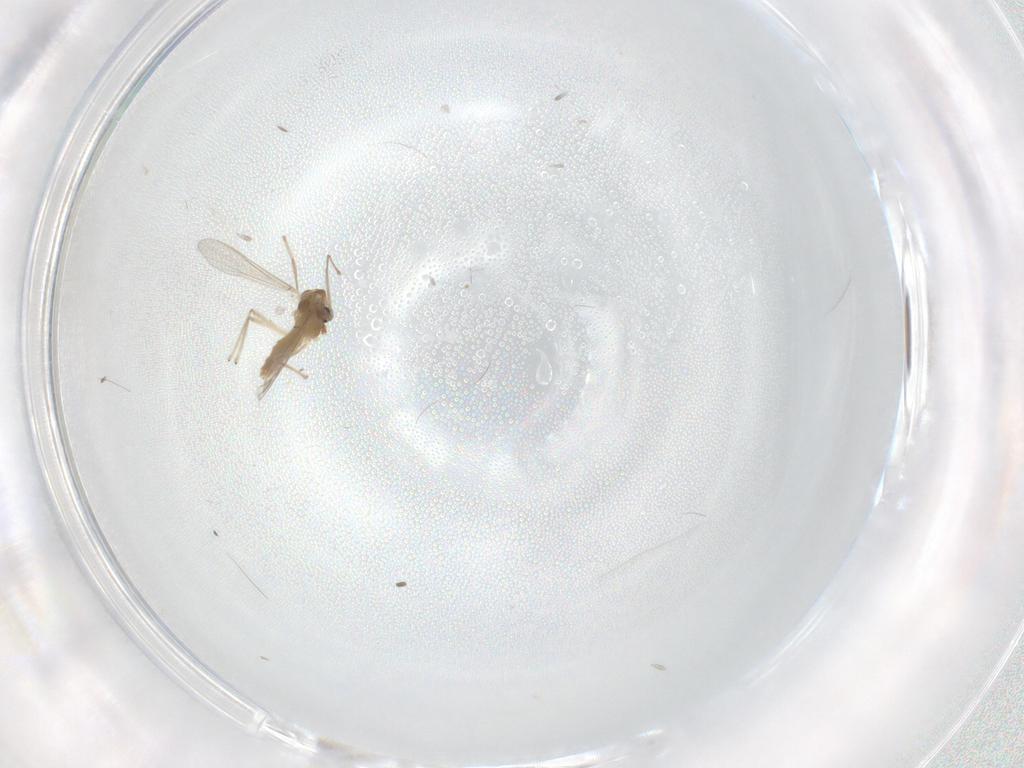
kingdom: Animalia
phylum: Arthropoda
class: Insecta
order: Diptera
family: Chironomidae
